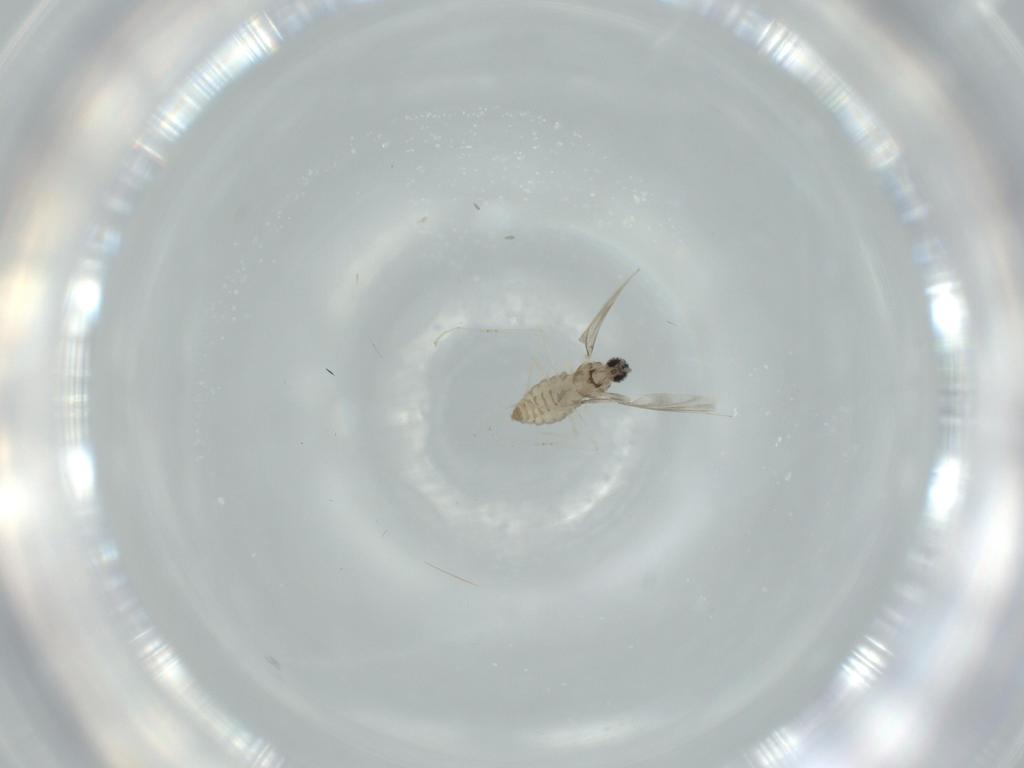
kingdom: Animalia
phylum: Arthropoda
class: Insecta
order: Diptera
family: Cecidomyiidae
